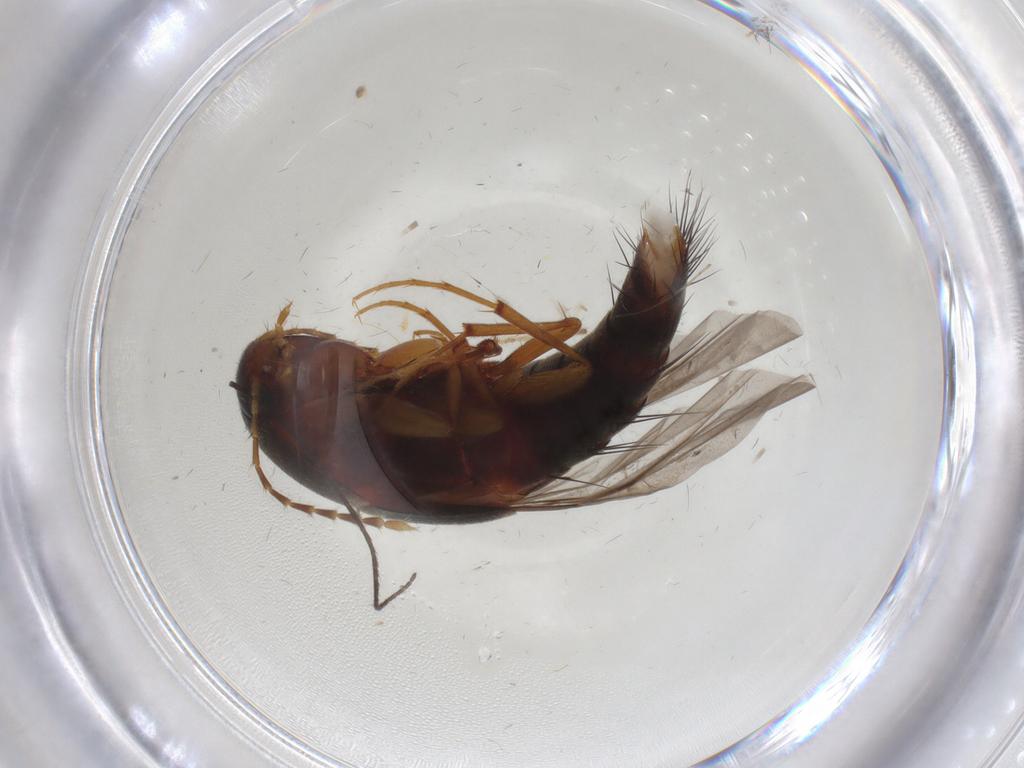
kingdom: Animalia
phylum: Arthropoda
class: Insecta
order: Coleoptera
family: Staphylinidae
